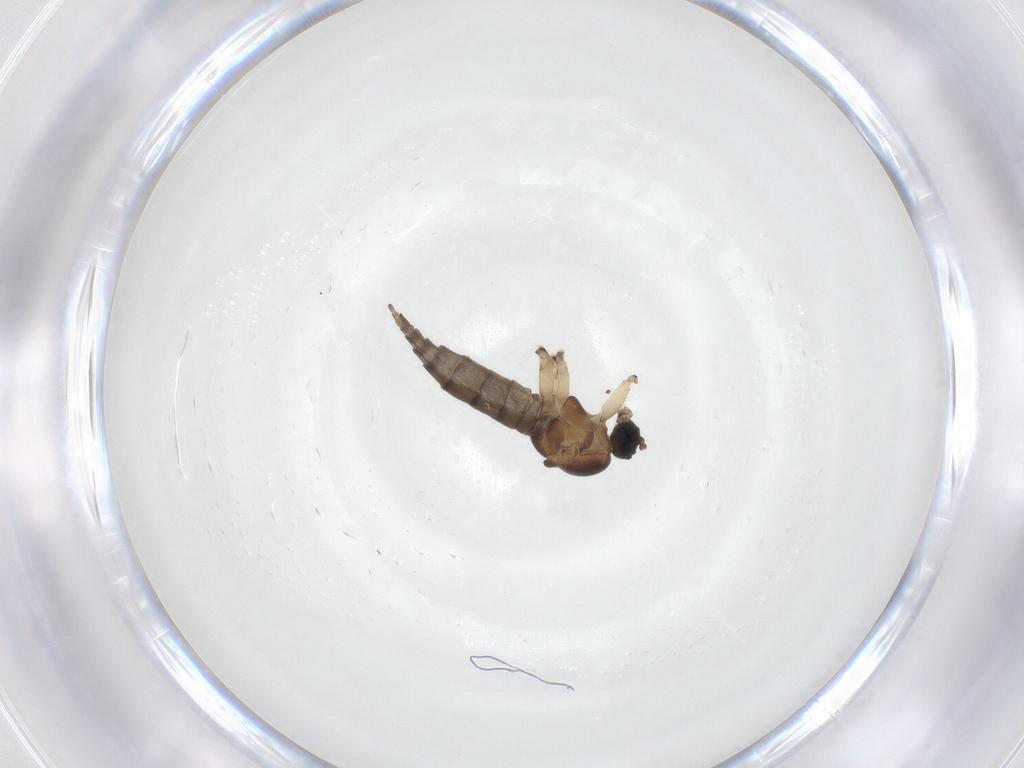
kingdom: Animalia
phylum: Arthropoda
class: Insecta
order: Diptera
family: Sciaridae
